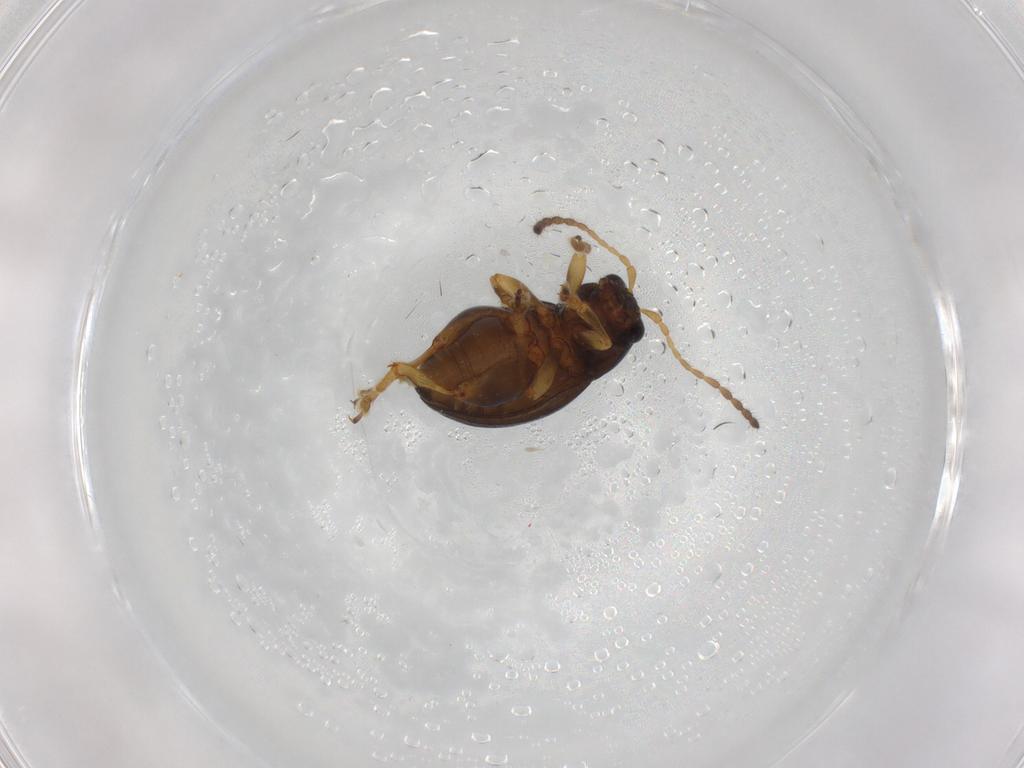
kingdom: Animalia
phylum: Arthropoda
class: Insecta
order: Coleoptera
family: Chrysomelidae
